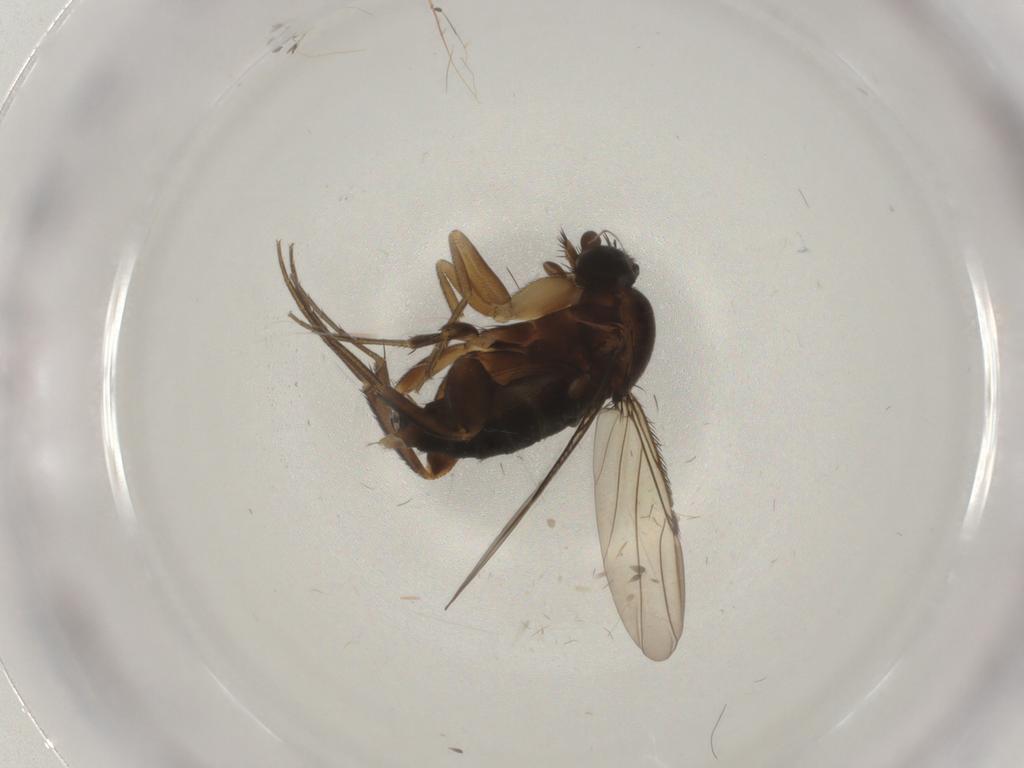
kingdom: Animalia
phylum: Arthropoda
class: Insecta
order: Diptera
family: Phoridae
